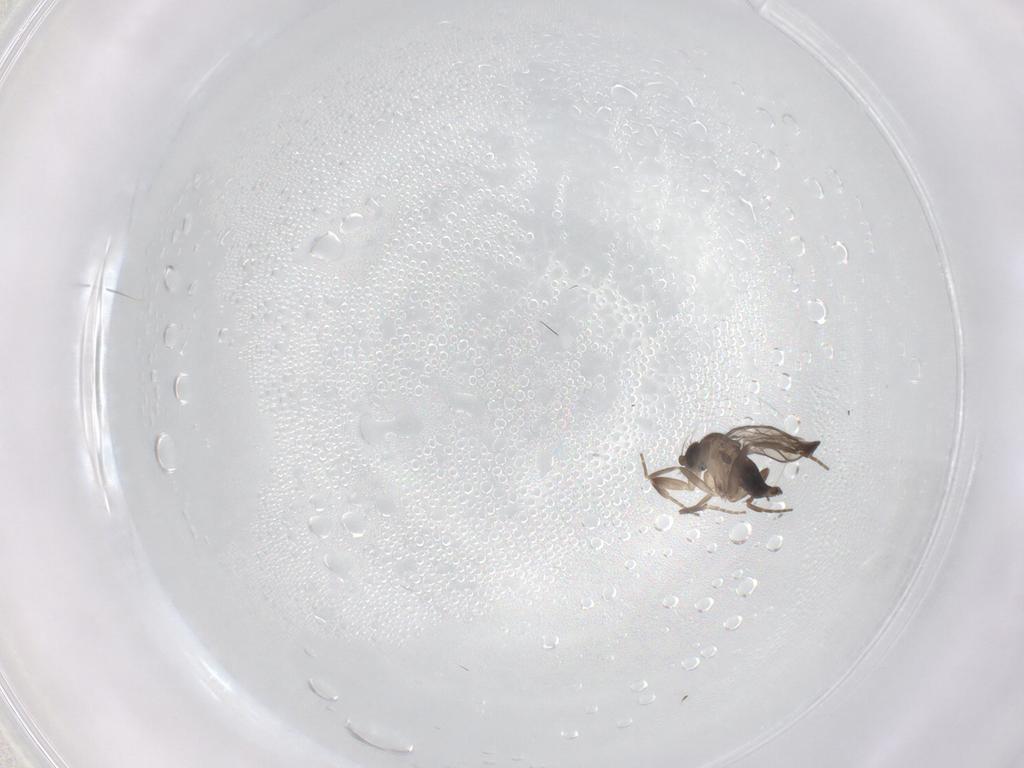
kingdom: Animalia
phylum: Arthropoda
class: Insecta
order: Diptera
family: Phoridae
